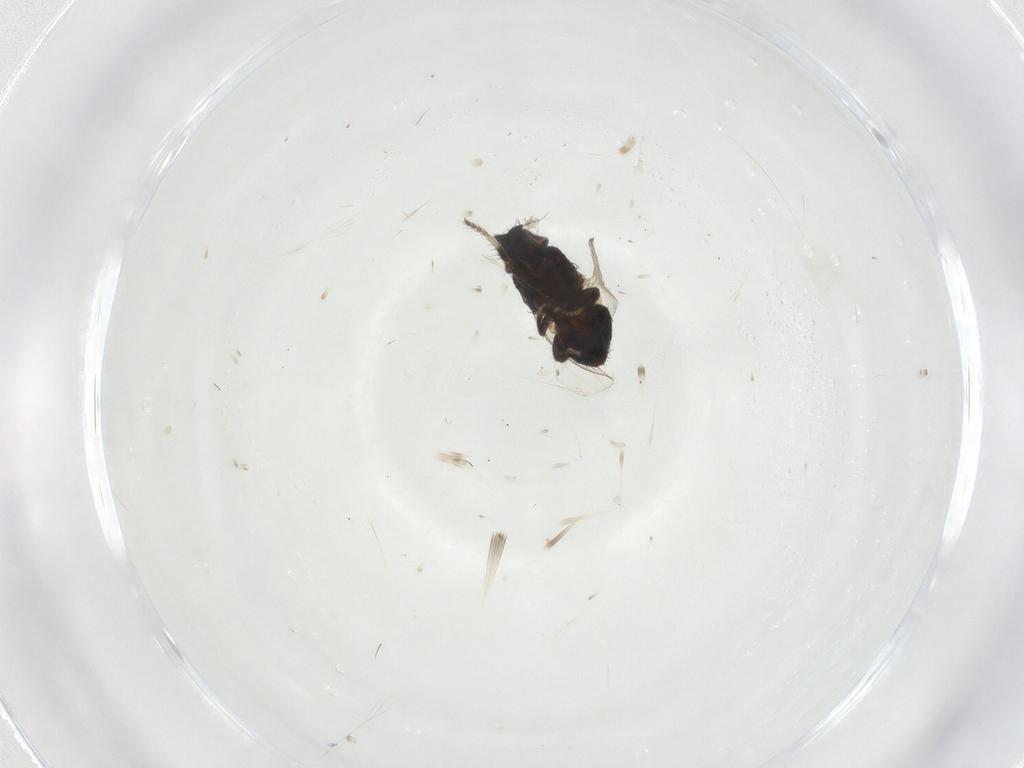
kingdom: Animalia
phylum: Arthropoda
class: Insecta
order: Diptera
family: Milichiidae
